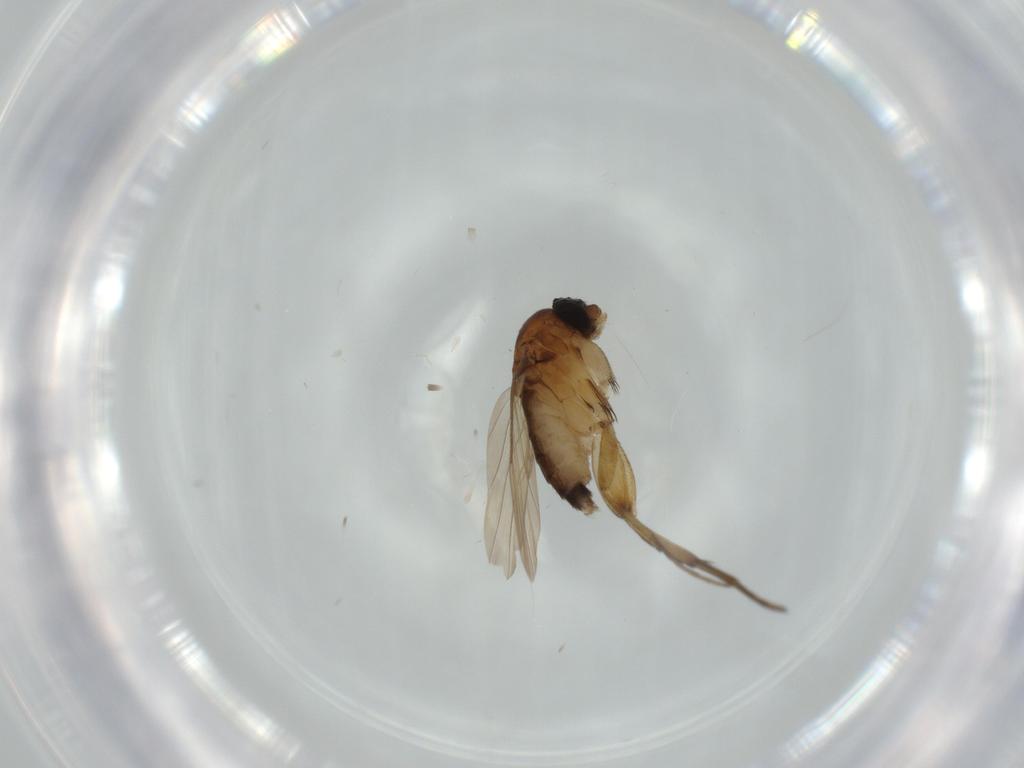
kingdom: Animalia
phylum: Arthropoda
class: Insecta
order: Diptera
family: Phoridae
